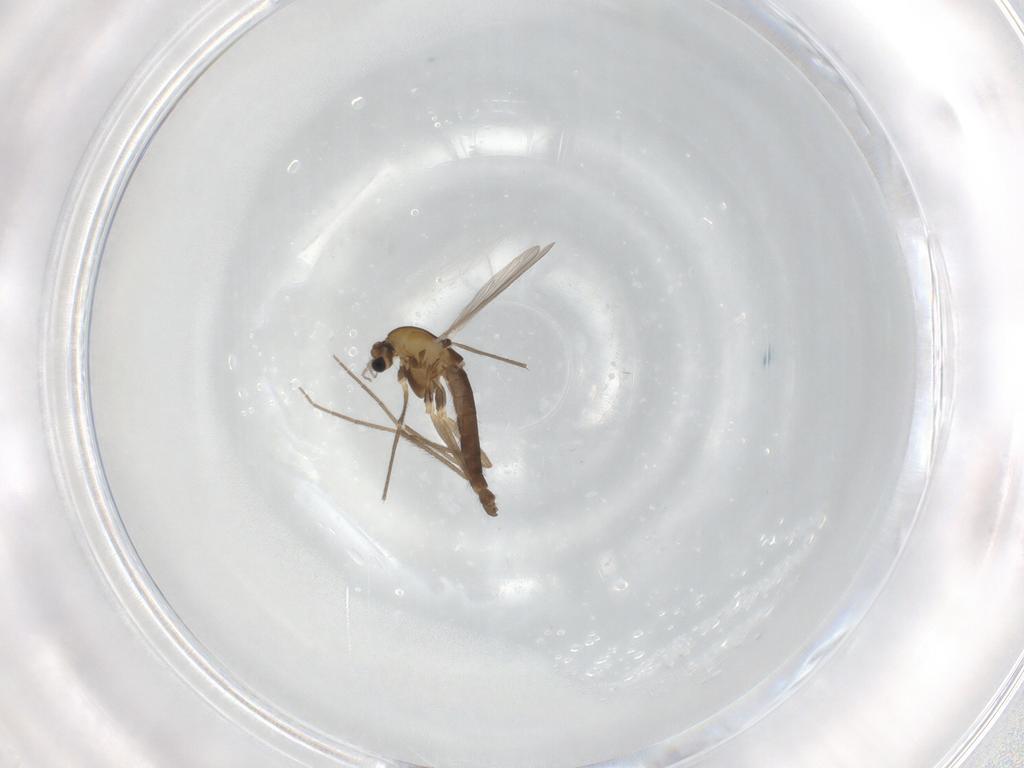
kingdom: Animalia
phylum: Arthropoda
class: Insecta
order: Diptera
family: Chironomidae
